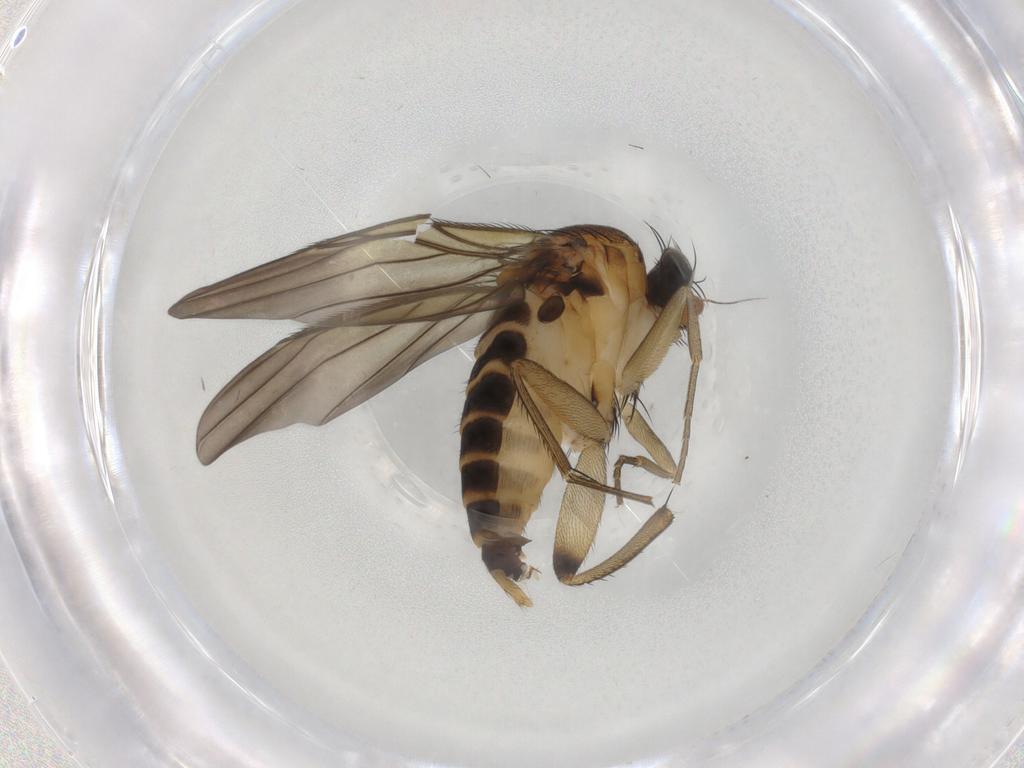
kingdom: Animalia
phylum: Arthropoda
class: Insecta
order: Diptera
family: Phoridae
